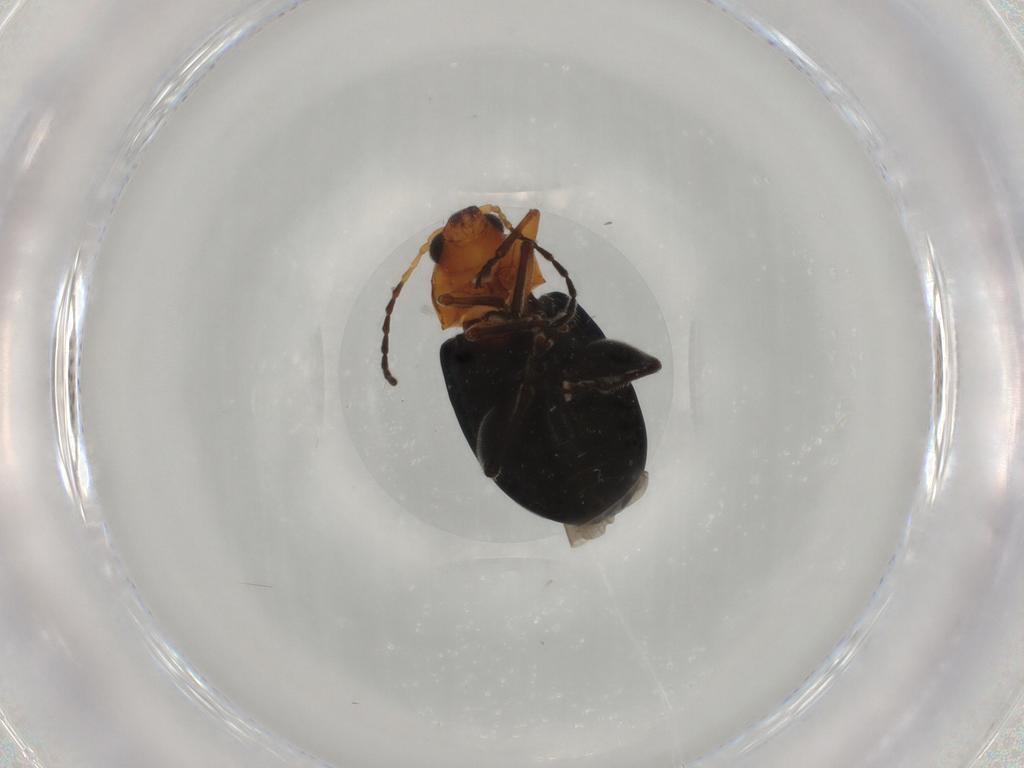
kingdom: Animalia
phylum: Arthropoda
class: Insecta
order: Coleoptera
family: Chrysomelidae
